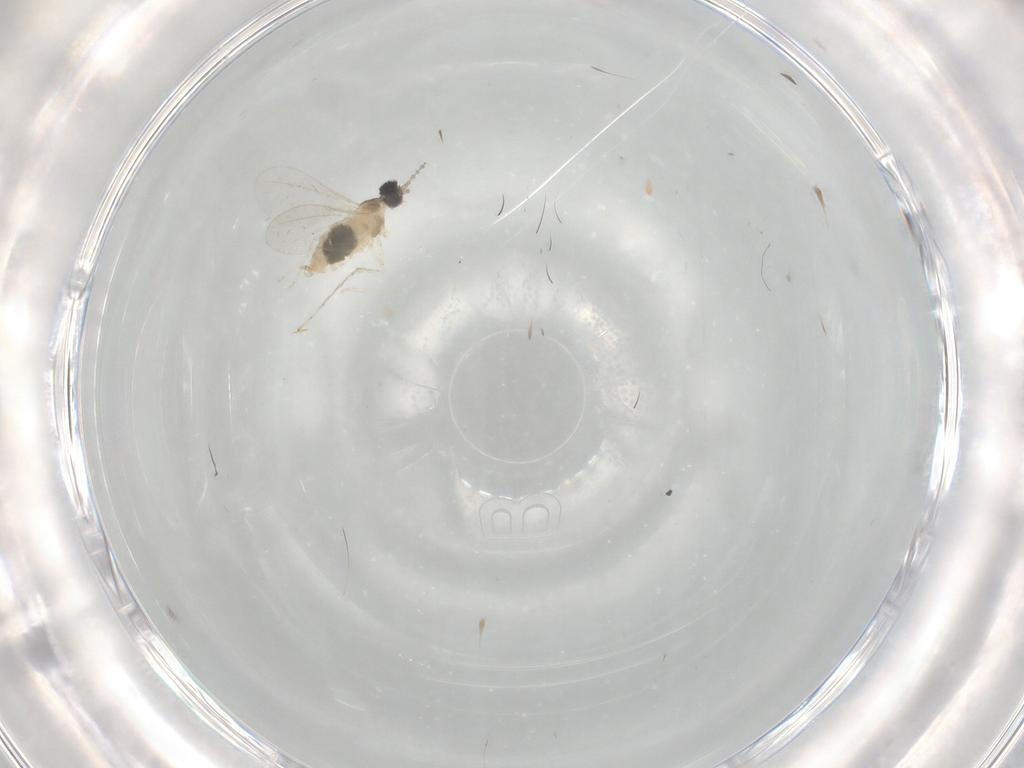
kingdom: Animalia
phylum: Arthropoda
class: Insecta
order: Diptera
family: Cecidomyiidae
